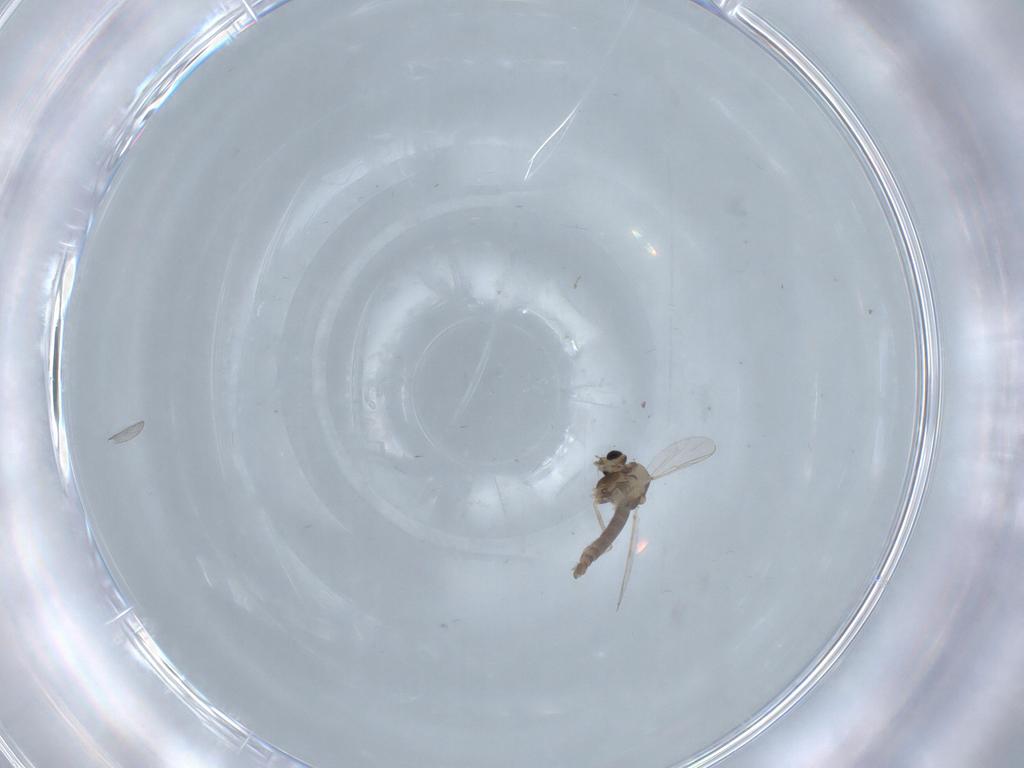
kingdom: Animalia
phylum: Arthropoda
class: Insecta
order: Diptera
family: Chironomidae
